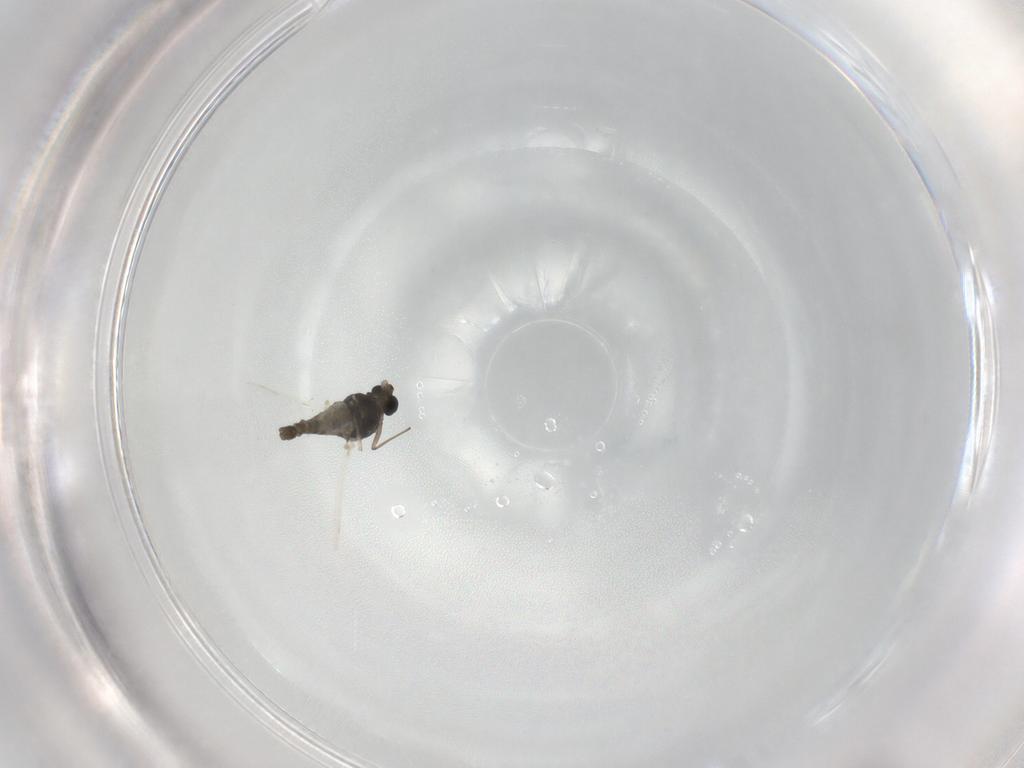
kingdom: Animalia
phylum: Arthropoda
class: Insecta
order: Diptera
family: Chironomidae
